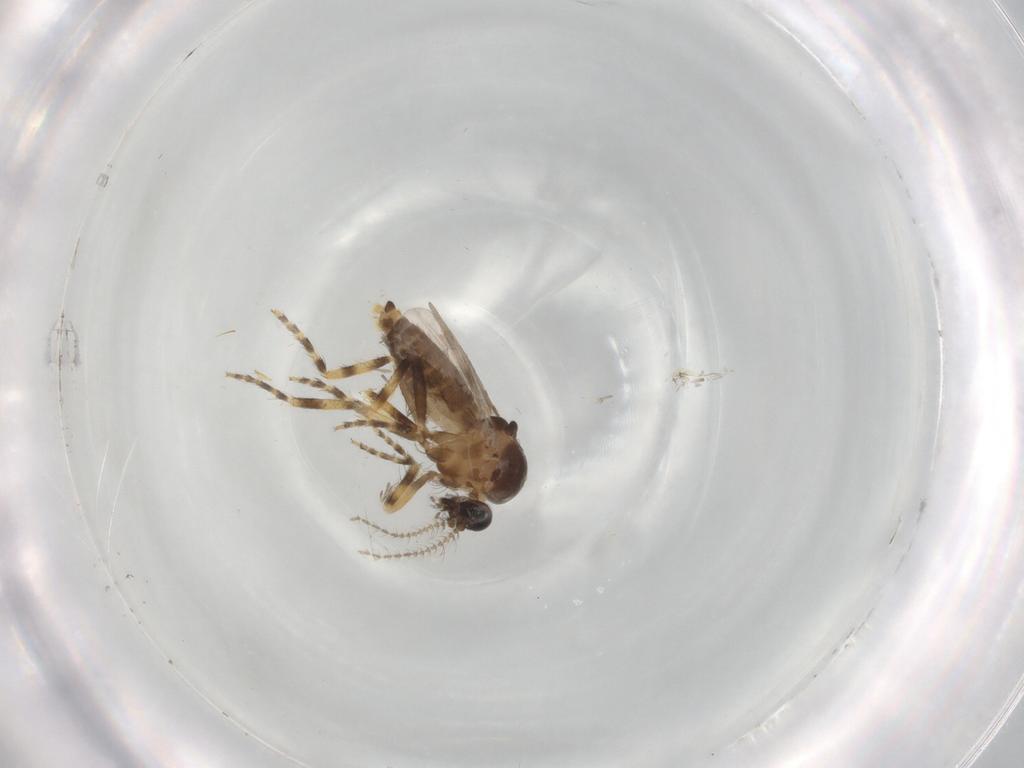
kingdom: Animalia
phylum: Arthropoda
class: Insecta
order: Diptera
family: Ceratopogonidae
